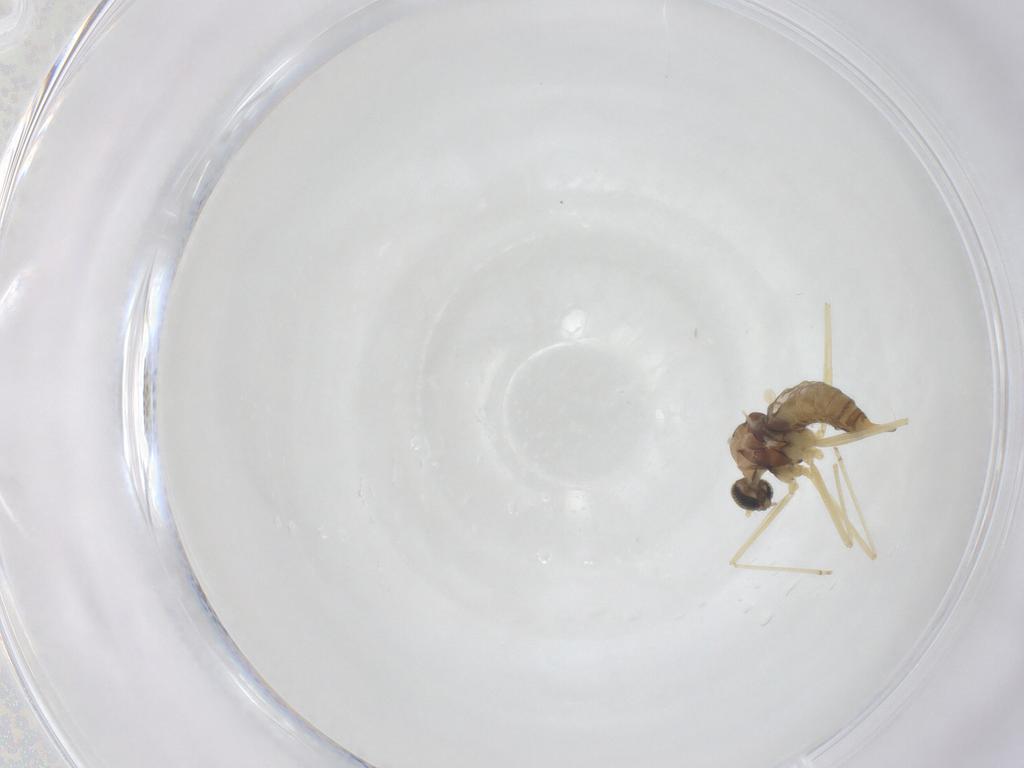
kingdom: Animalia
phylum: Arthropoda
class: Insecta
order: Diptera
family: Cecidomyiidae
